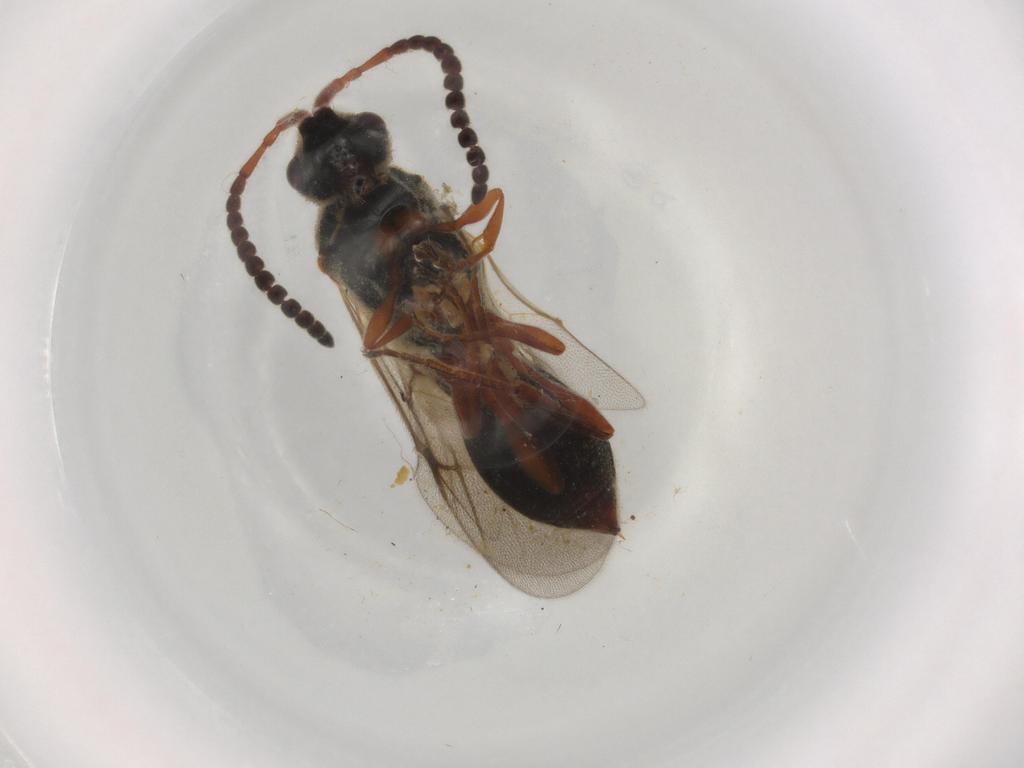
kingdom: Animalia
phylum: Arthropoda
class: Insecta
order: Hymenoptera
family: Diapriidae
